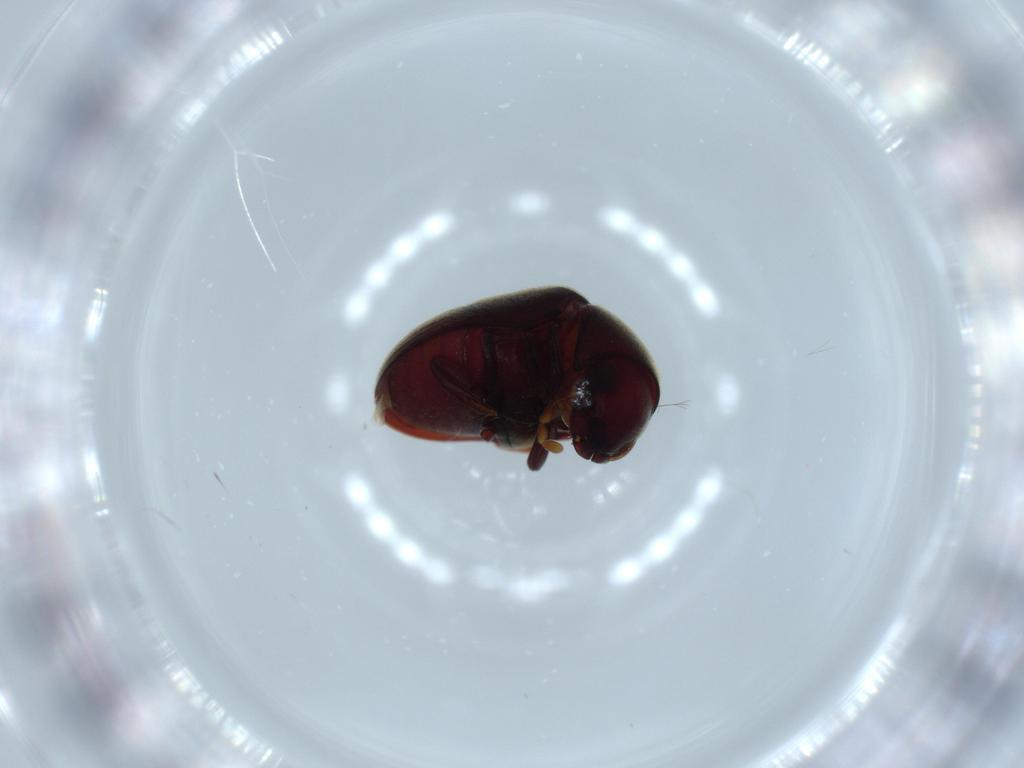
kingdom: Animalia
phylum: Arthropoda
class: Insecta
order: Coleoptera
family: Ptinidae
